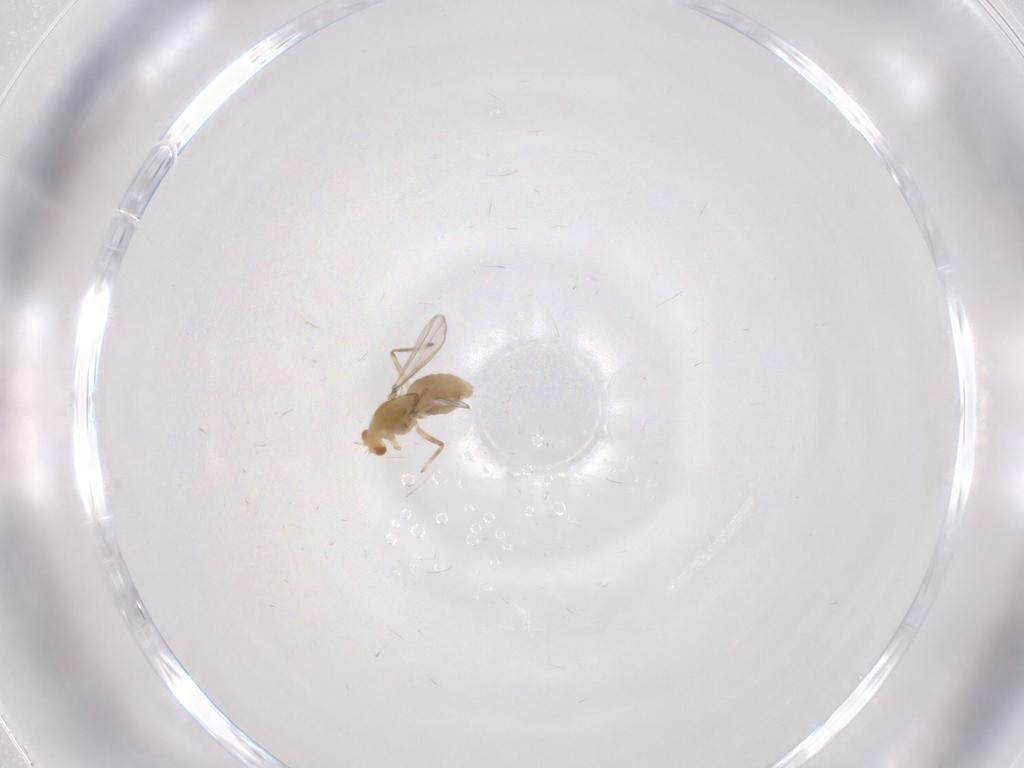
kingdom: Animalia
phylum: Arthropoda
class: Insecta
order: Diptera
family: Chironomidae
